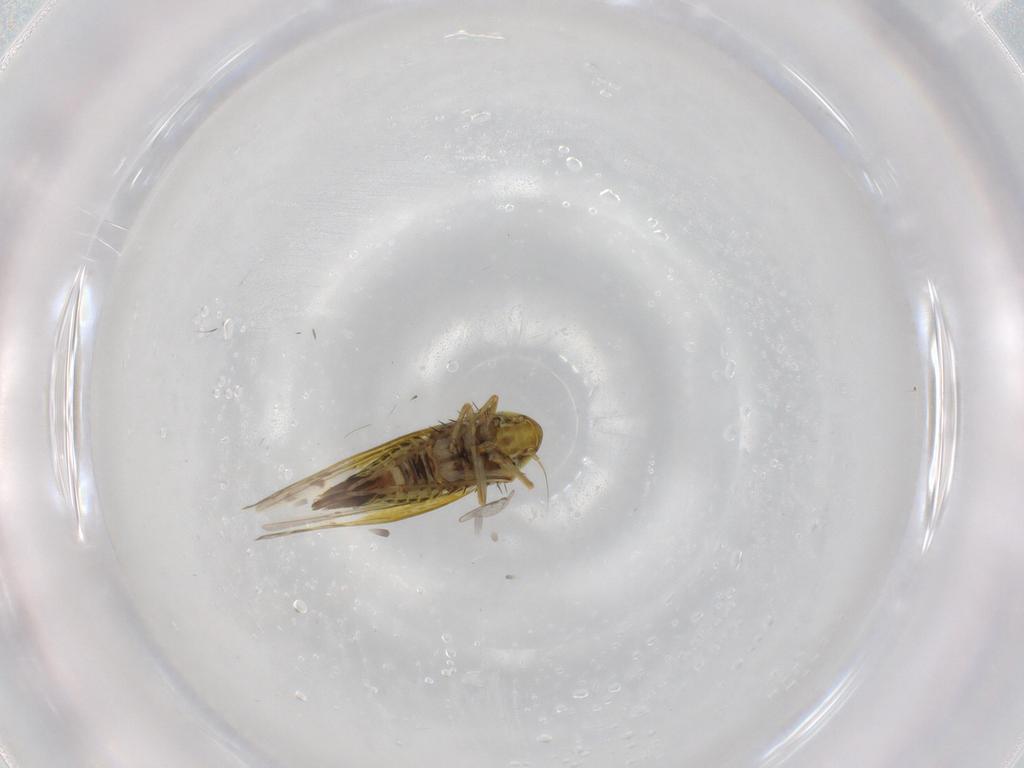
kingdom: Animalia
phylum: Arthropoda
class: Insecta
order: Hemiptera
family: Cicadellidae
